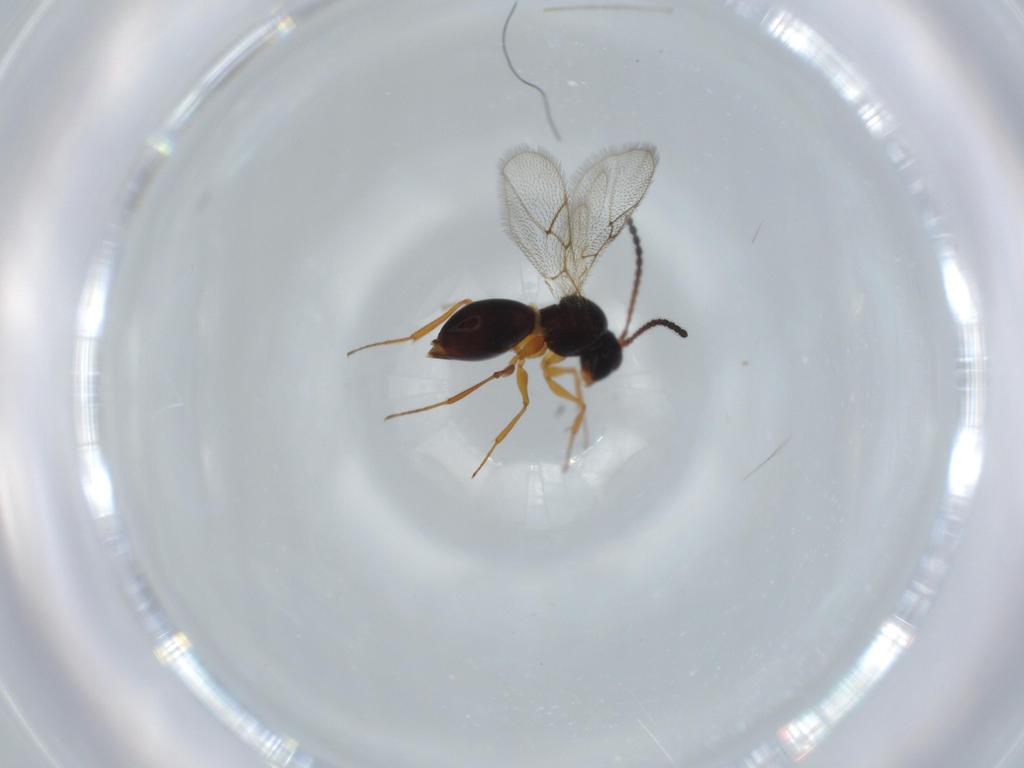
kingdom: Animalia
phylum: Arthropoda
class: Insecta
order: Hymenoptera
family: Figitidae
